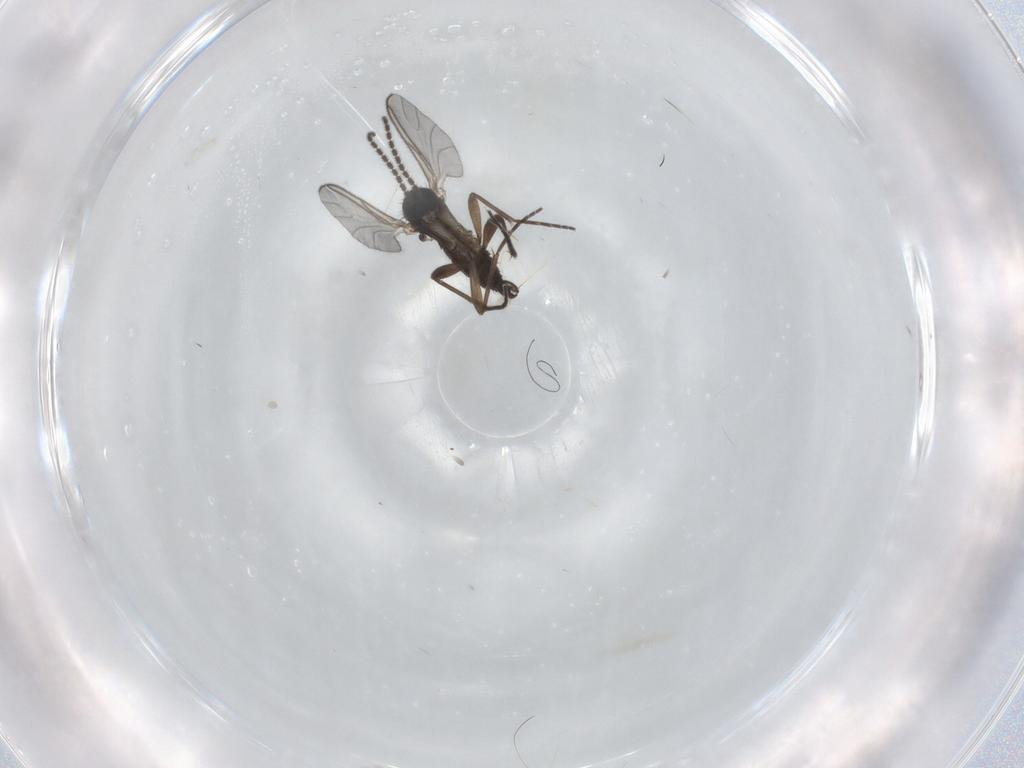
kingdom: Animalia
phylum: Arthropoda
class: Insecta
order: Diptera
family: Sciaridae
